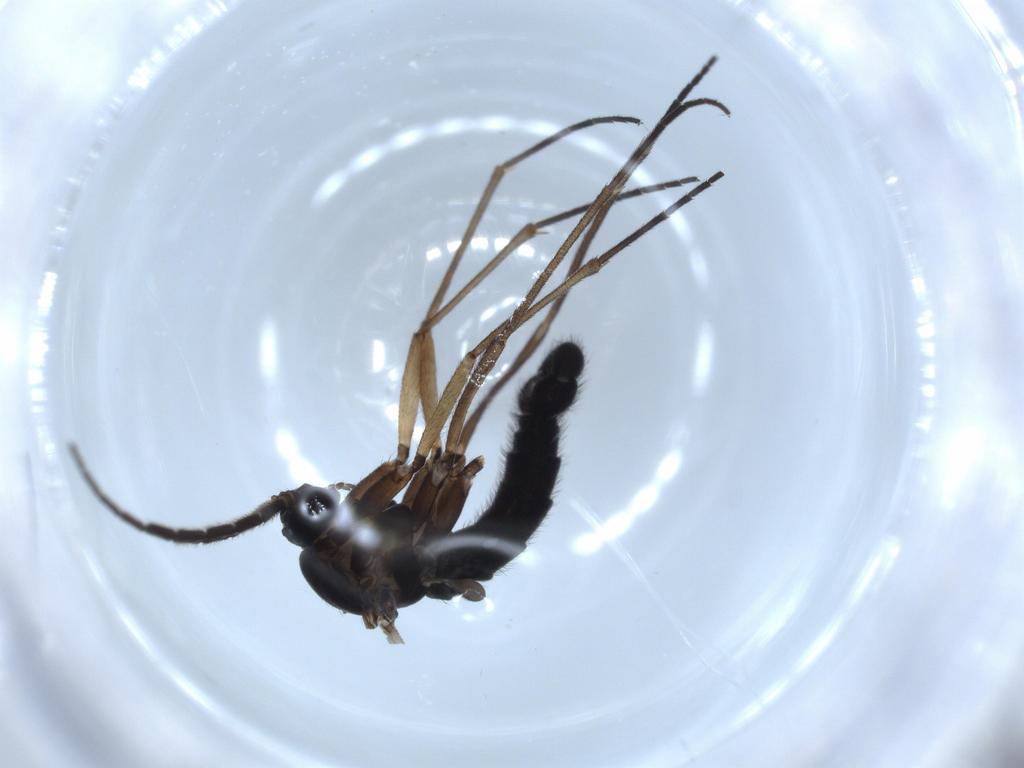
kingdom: Animalia
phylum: Arthropoda
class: Insecta
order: Diptera
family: Sciaridae
